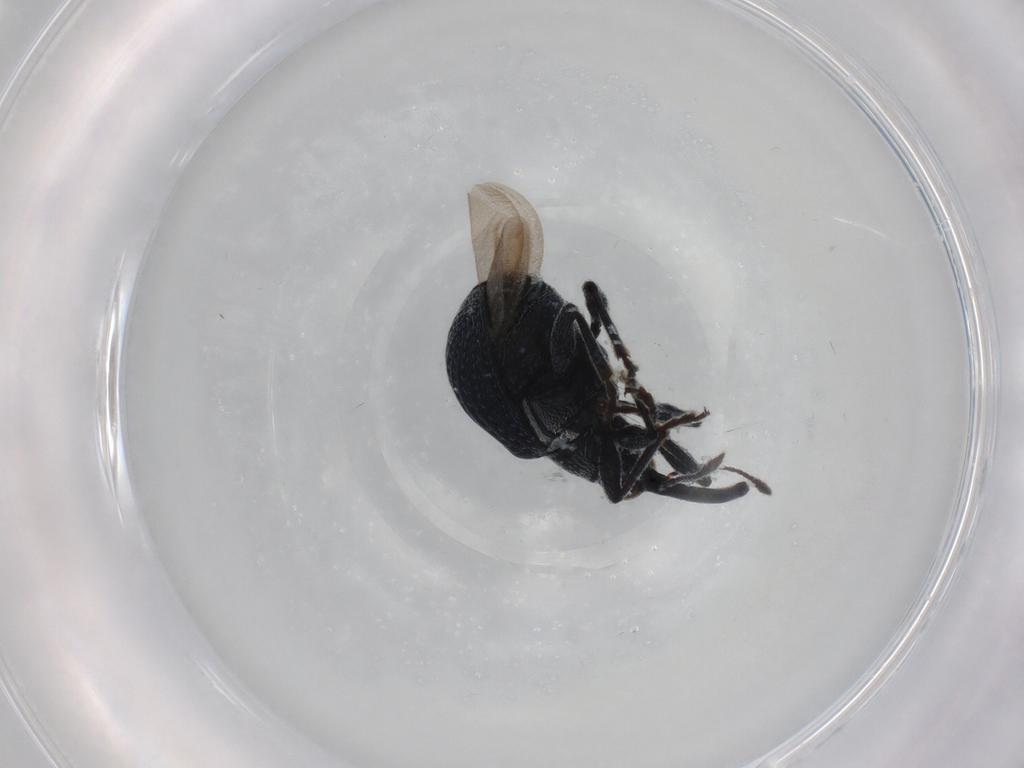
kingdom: Animalia
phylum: Arthropoda
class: Insecta
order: Coleoptera
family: Brentidae
